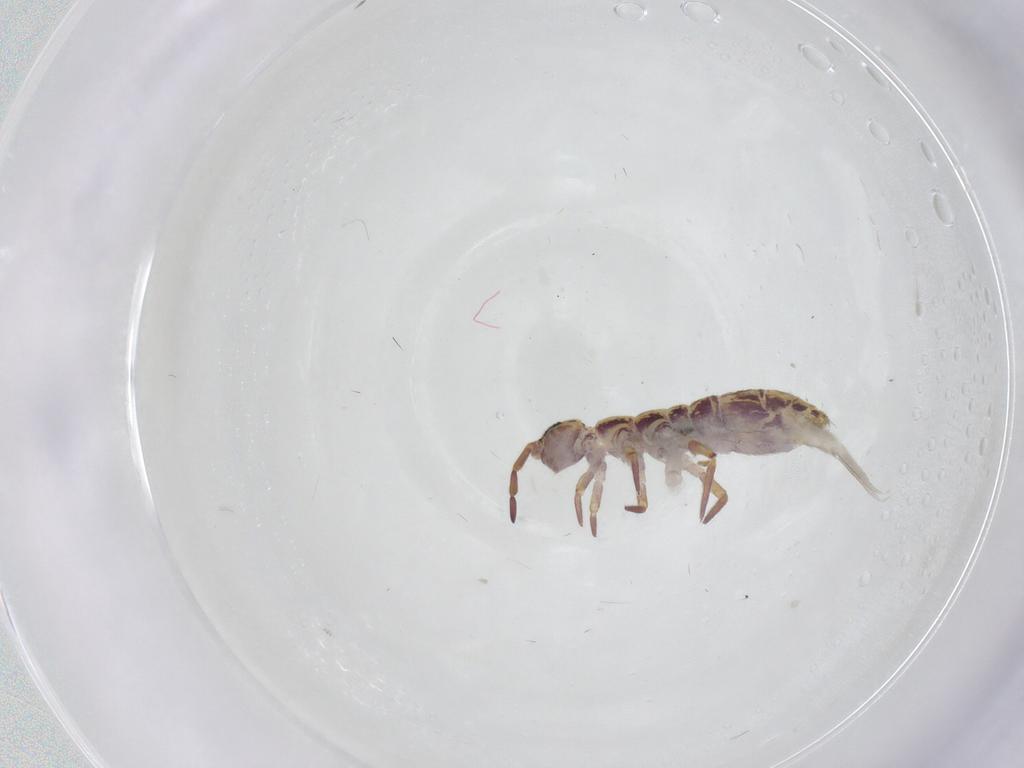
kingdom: Animalia
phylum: Arthropoda
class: Collembola
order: Entomobryomorpha
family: Isotomidae
